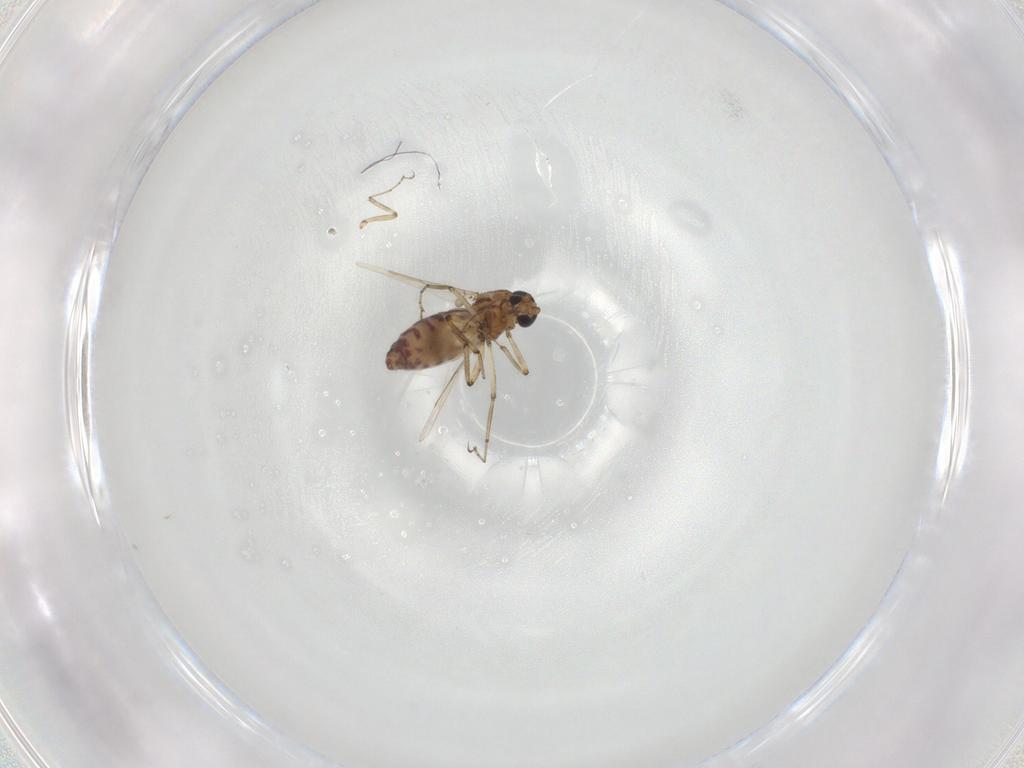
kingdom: Animalia
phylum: Arthropoda
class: Insecta
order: Diptera
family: Ceratopogonidae
